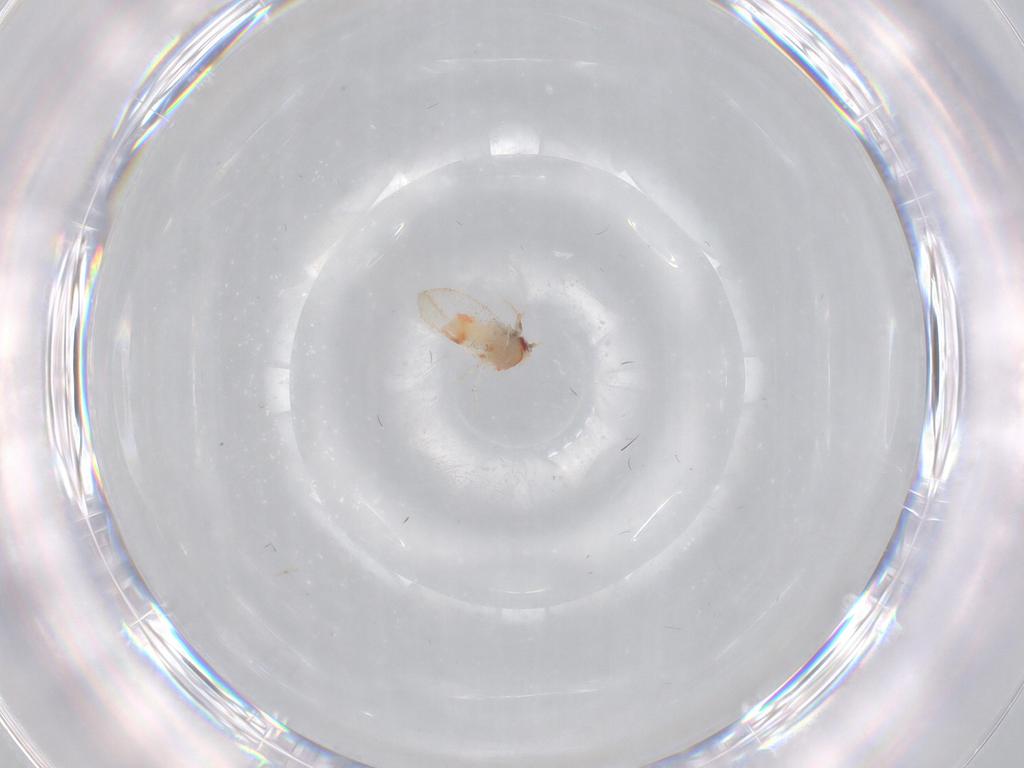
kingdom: Animalia
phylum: Arthropoda
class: Insecta
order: Hemiptera
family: Aleyrodidae
